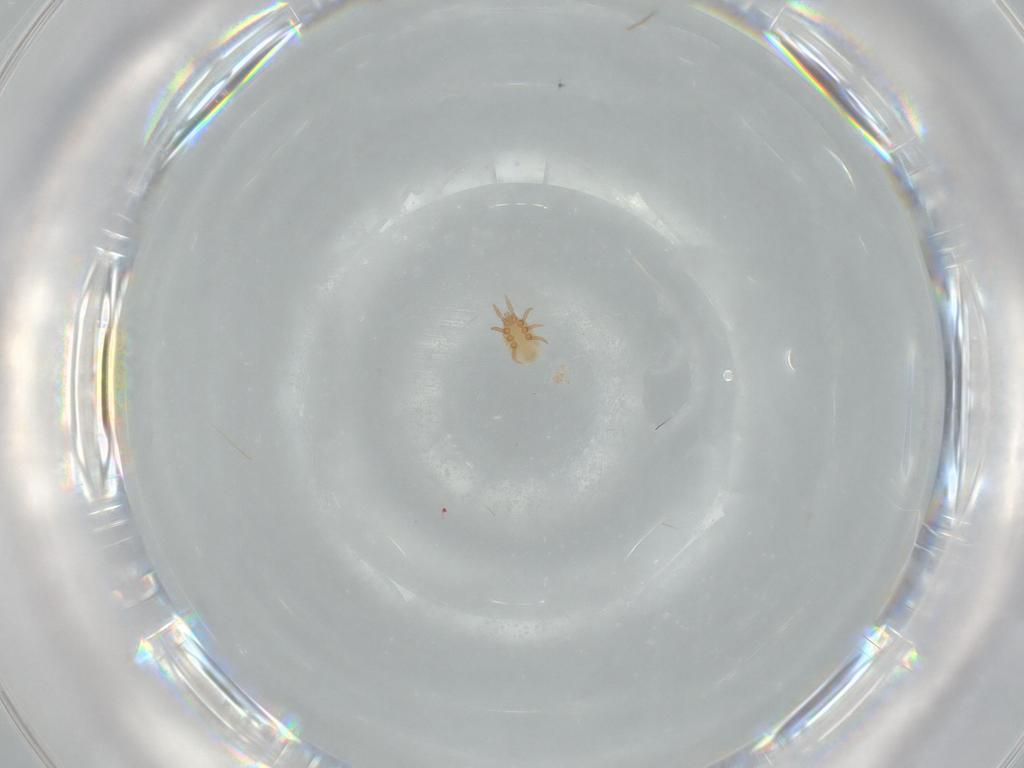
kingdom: Animalia
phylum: Arthropoda
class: Arachnida
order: Mesostigmata
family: Dinychidae
